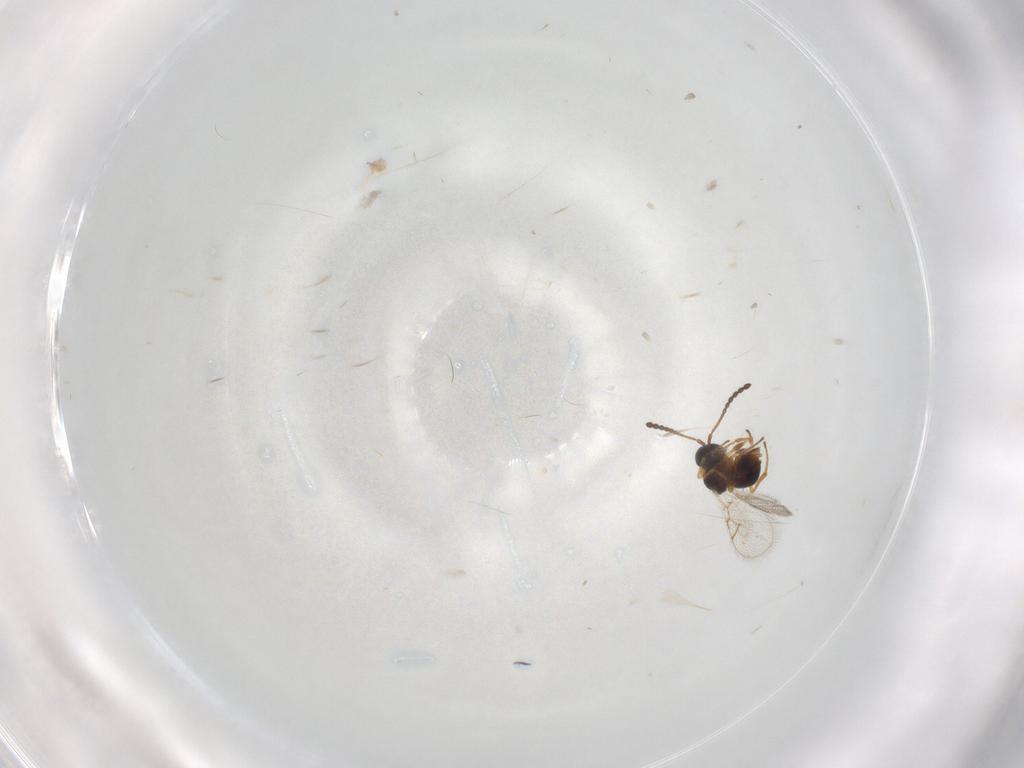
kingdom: Animalia
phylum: Arthropoda
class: Insecta
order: Hymenoptera
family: Figitidae
